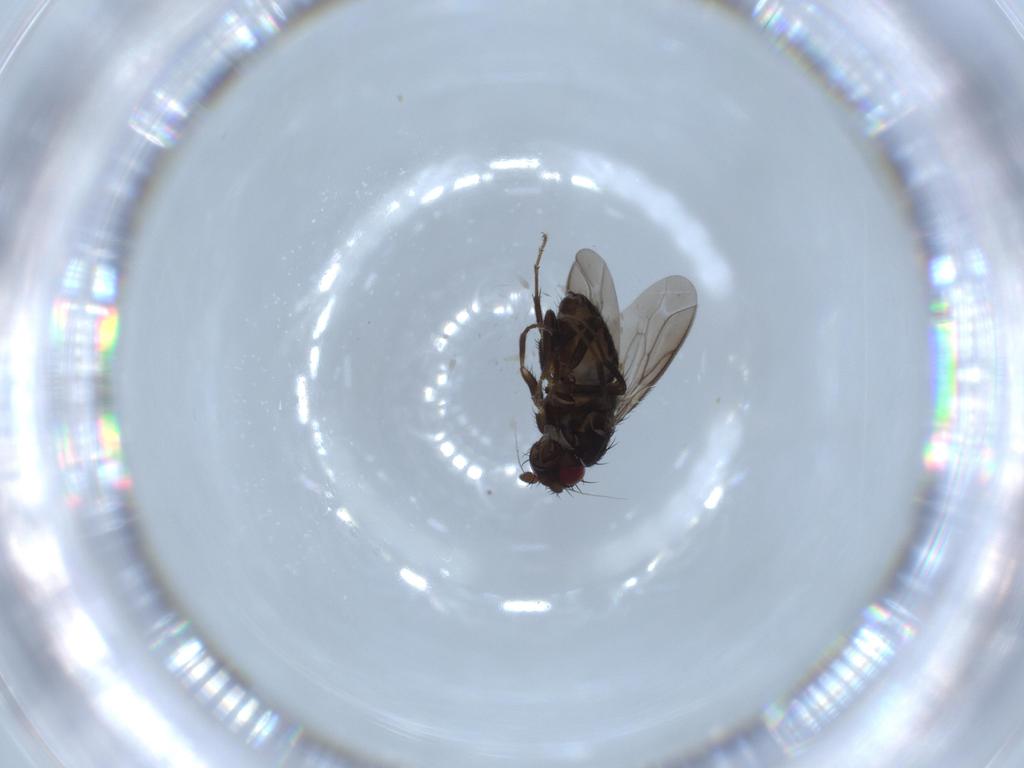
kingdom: Animalia
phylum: Arthropoda
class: Insecta
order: Diptera
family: Sphaeroceridae
